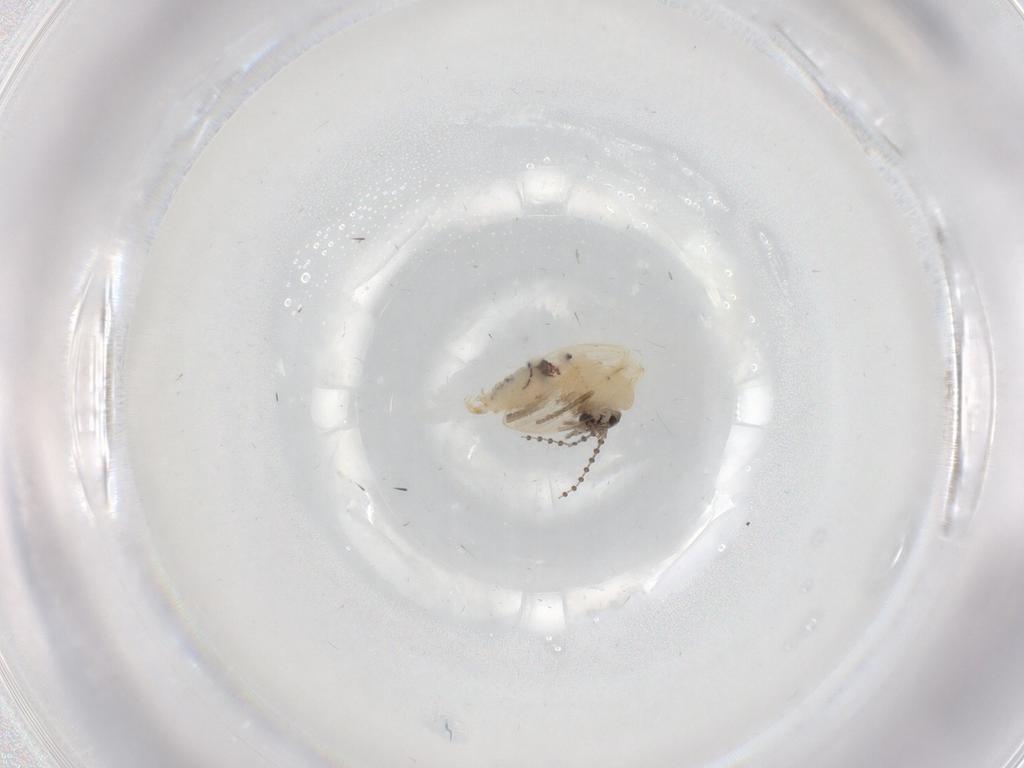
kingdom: Animalia
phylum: Arthropoda
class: Insecta
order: Diptera
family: Psychodidae
